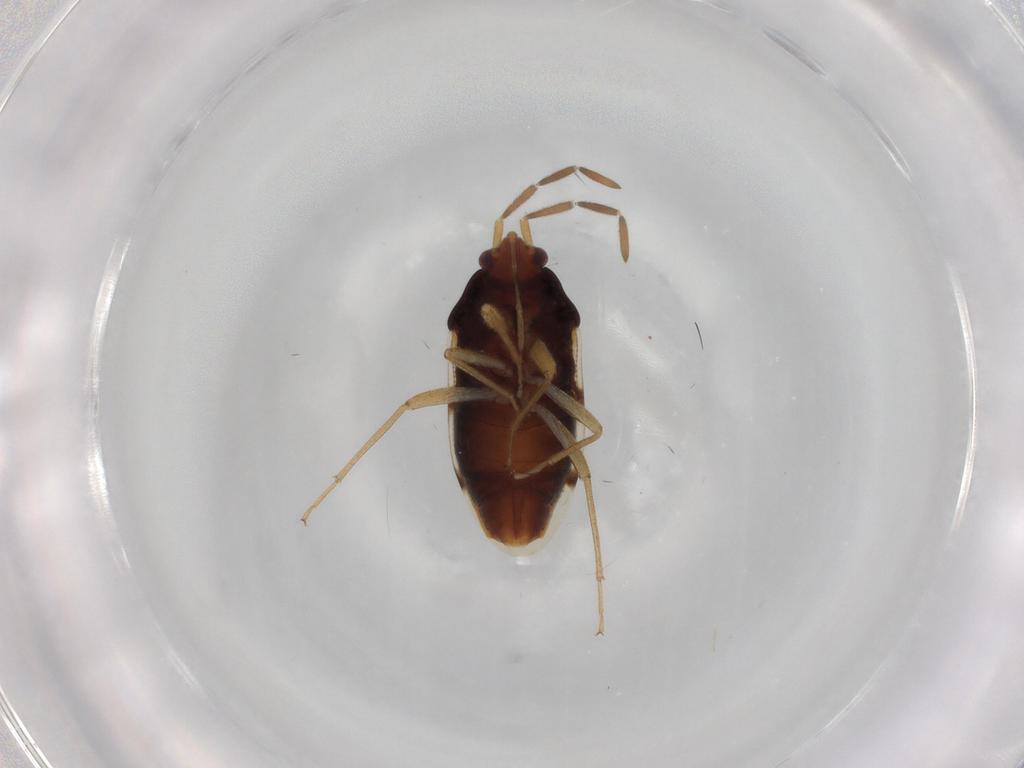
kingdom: Animalia
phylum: Arthropoda
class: Insecta
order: Hemiptera
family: Rhyparochromidae
